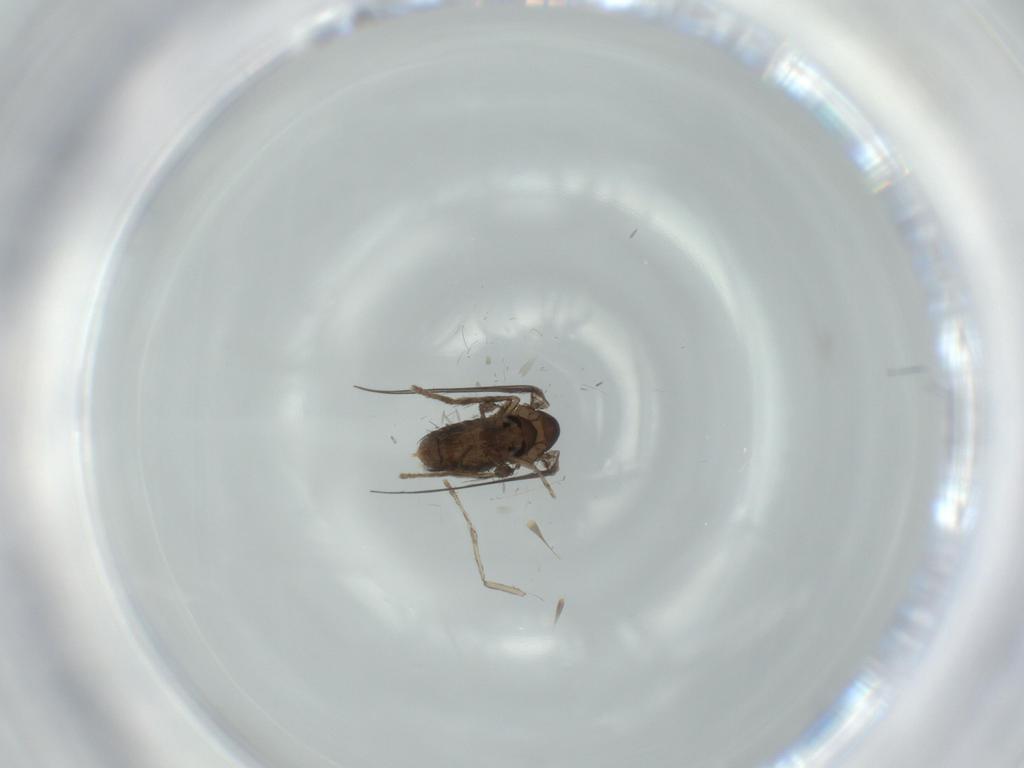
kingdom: Animalia
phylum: Arthropoda
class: Insecta
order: Diptera
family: Psychodidae
